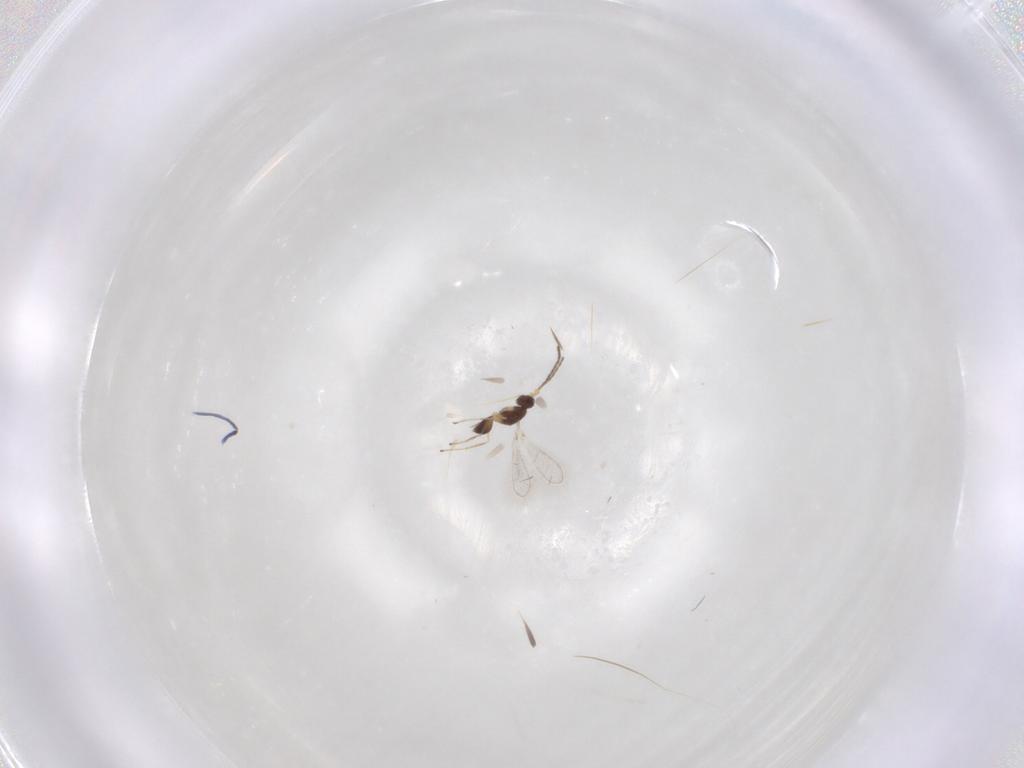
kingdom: Animalia
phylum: Arthropoda
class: Insecta
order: Hymenoptera
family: Mymaridae
